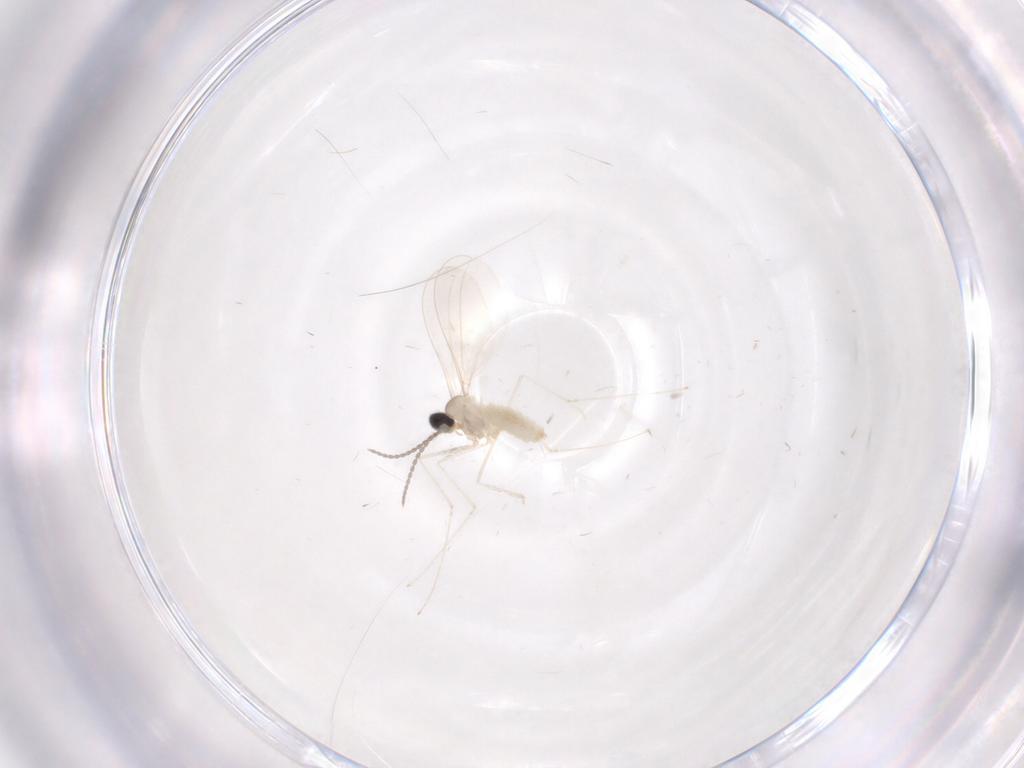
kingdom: Animalia
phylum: Arthropoda
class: Insecta
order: Diptera
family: Cecidomyiidae
